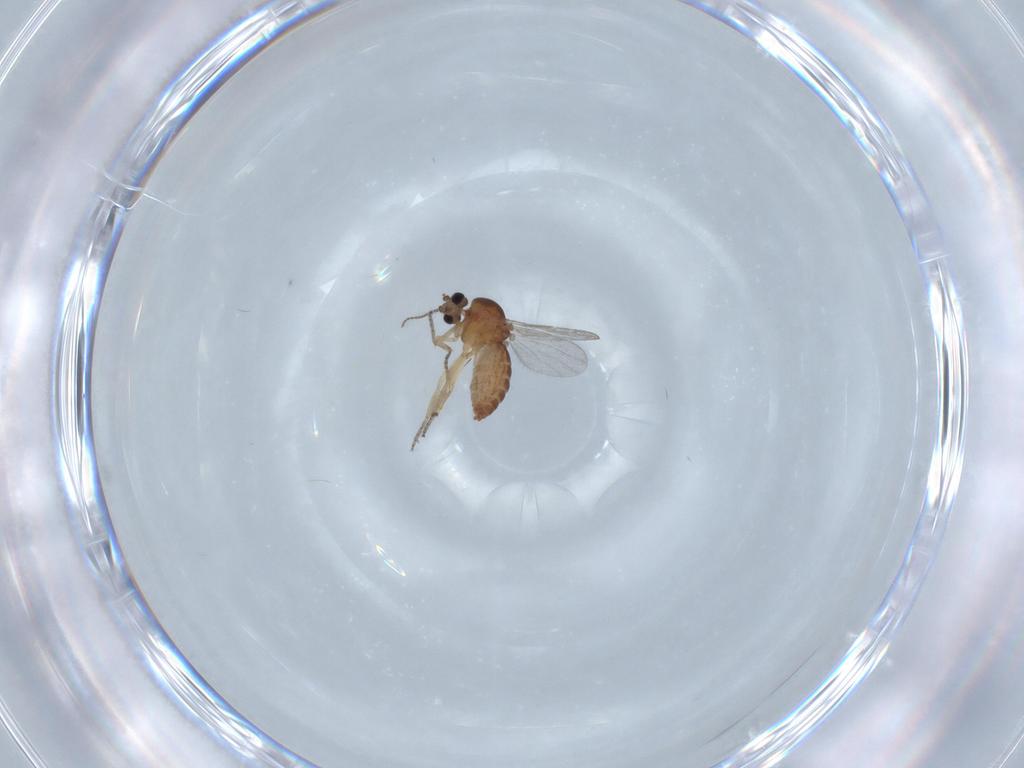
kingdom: Animalia
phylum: Arthropoda
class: Insecta
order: Diptera
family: Ceratopogonidae
